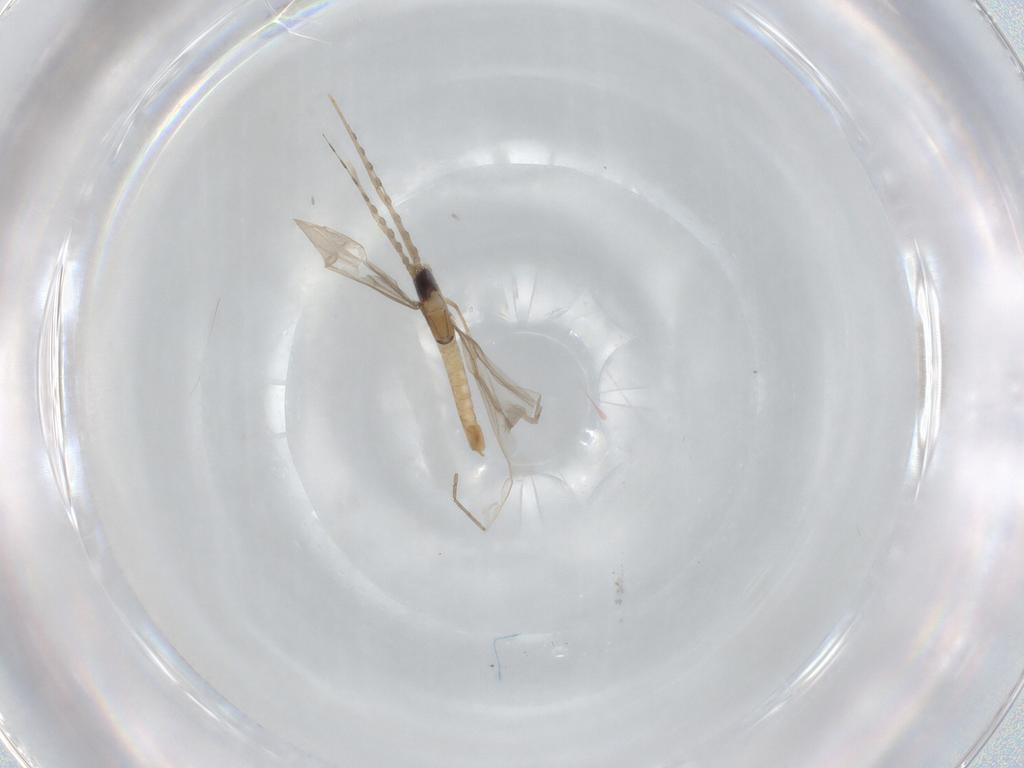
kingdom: Animalia
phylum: Arthropoda
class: Insecta
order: Diptera
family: Cecidomyiidae
